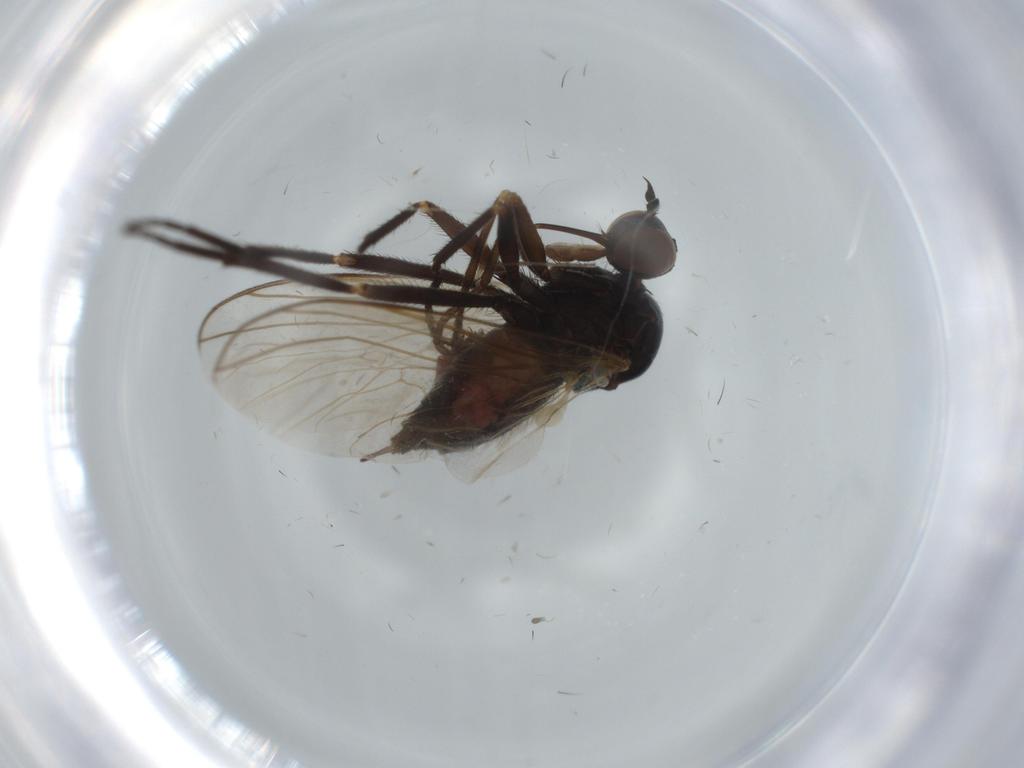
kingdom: Animalia
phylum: Arthropoda
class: Insecta
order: Diptera
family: Empididae
